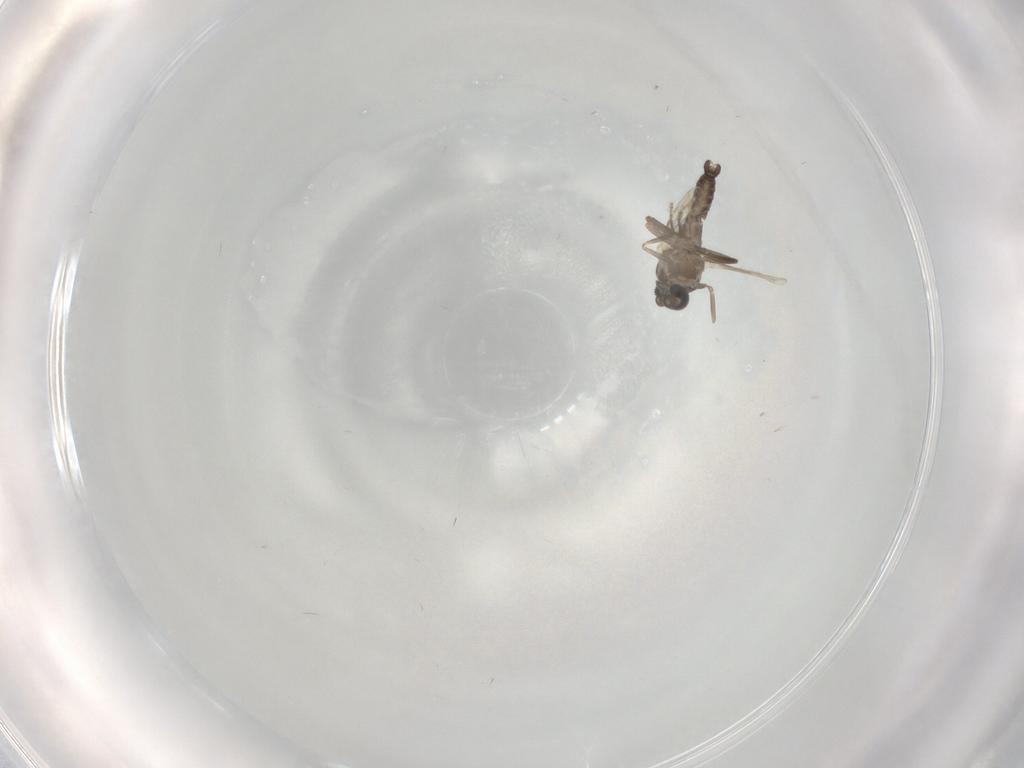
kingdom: Animalia
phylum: Arthropoda
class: Insecta
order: Diptera
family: Ceratopogonidae
